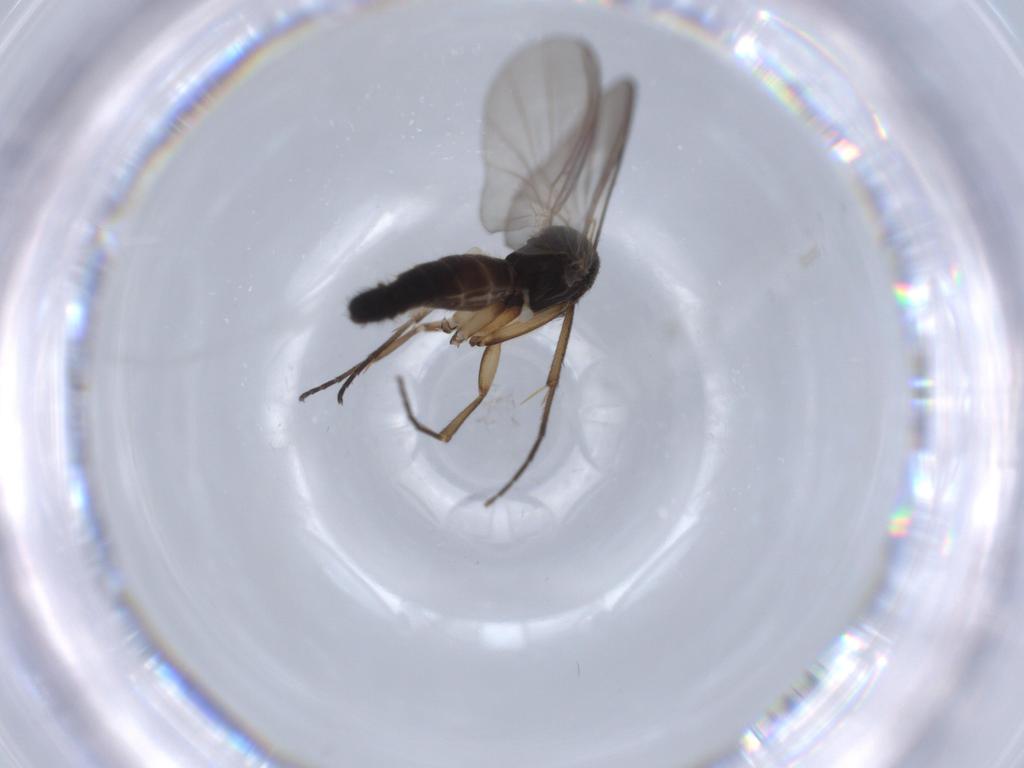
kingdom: Animalia
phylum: Arthropoda
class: Insecta
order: Diptera
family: Mycetophilidae
